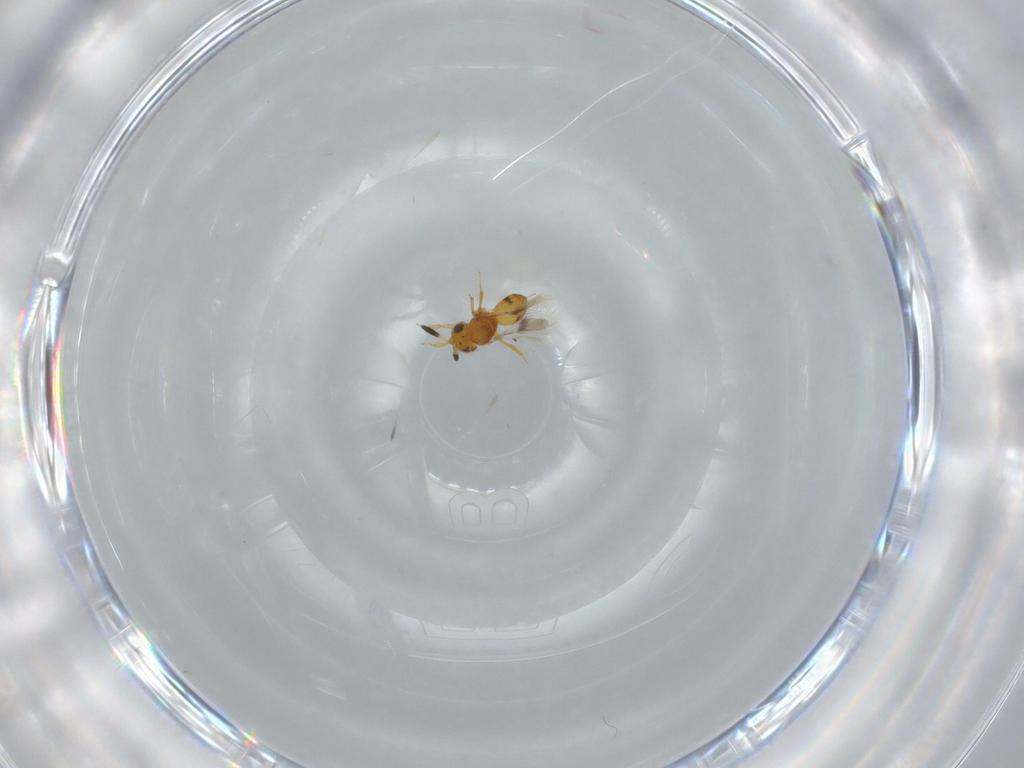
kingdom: Animalia
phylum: Arthropoda
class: Insecta
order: Hymenoptera
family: Scelionidae
